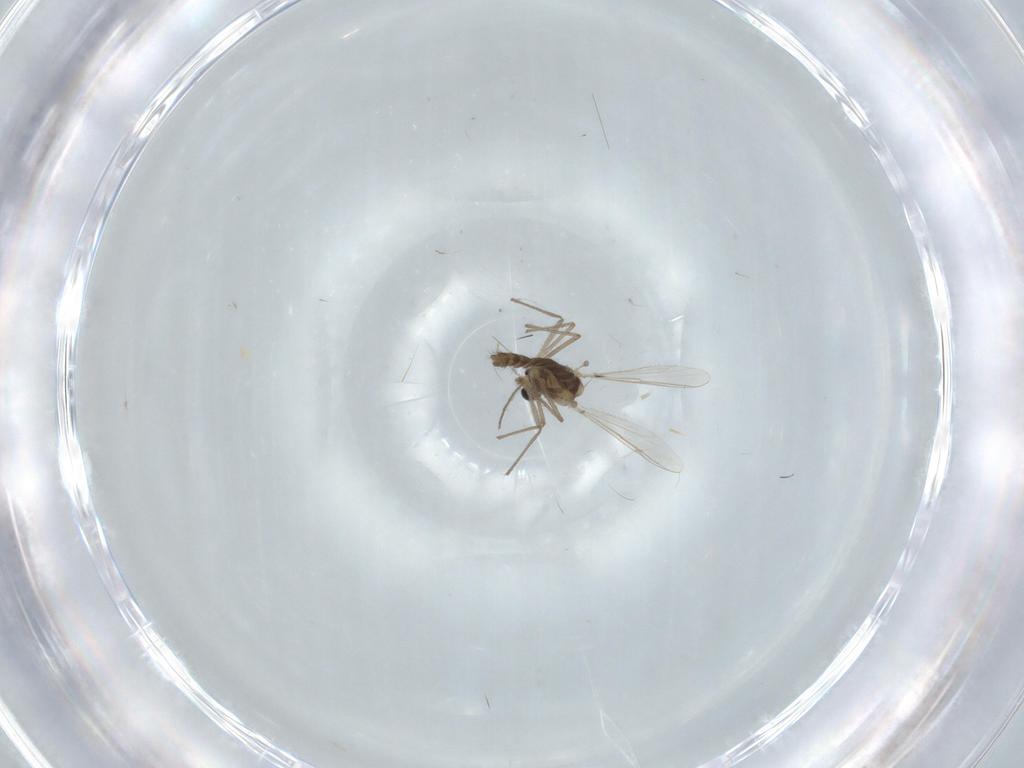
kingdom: Animalia
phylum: Arthropoda
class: Insecta
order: Diptera
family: Chironomidae
